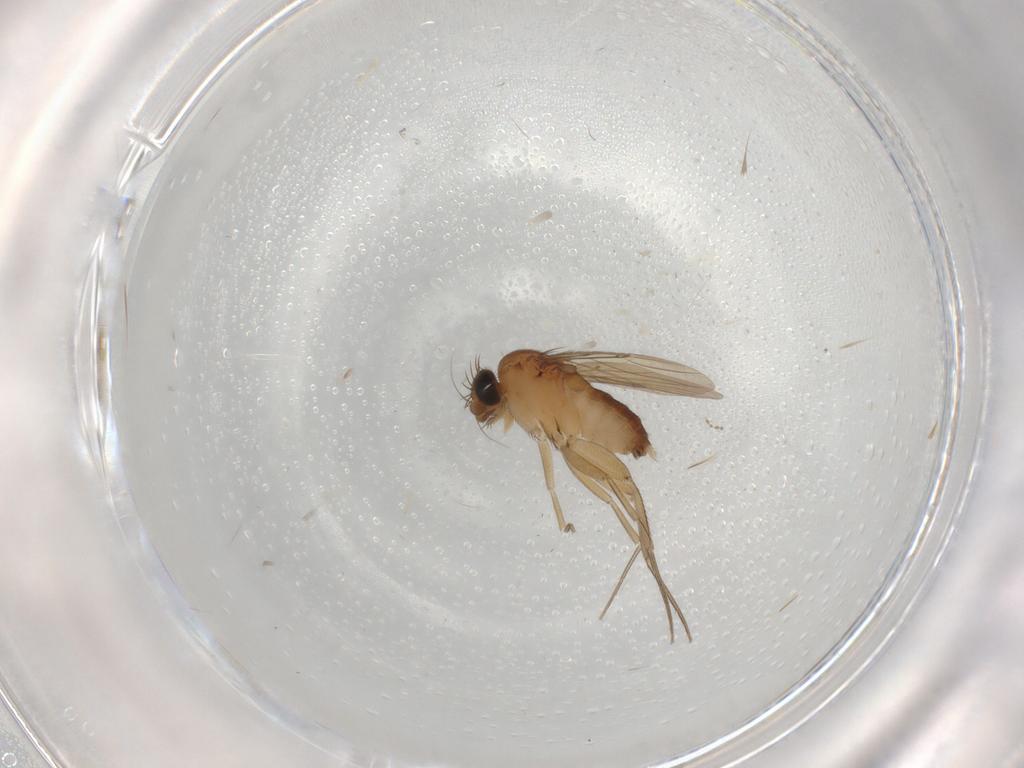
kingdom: Animalia
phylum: Arthropoda
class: Insecta
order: Diptera
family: Phoridae
